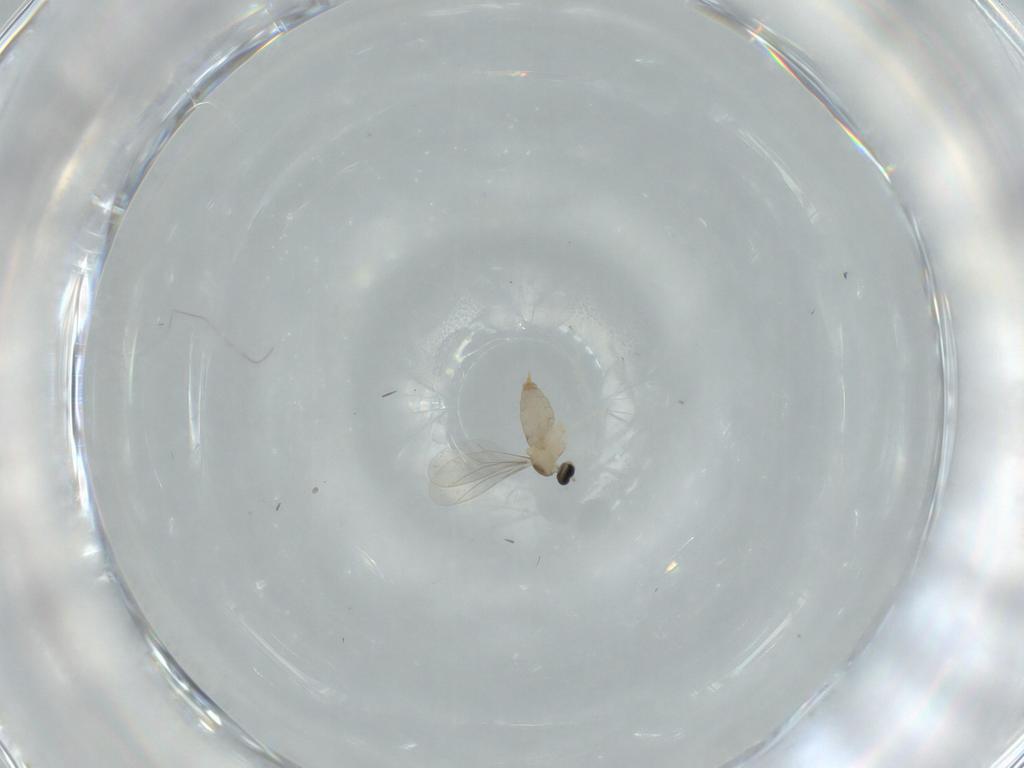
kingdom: Animalia
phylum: Arthropoda
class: Insecta
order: Diptera
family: Cecidomyiidae
